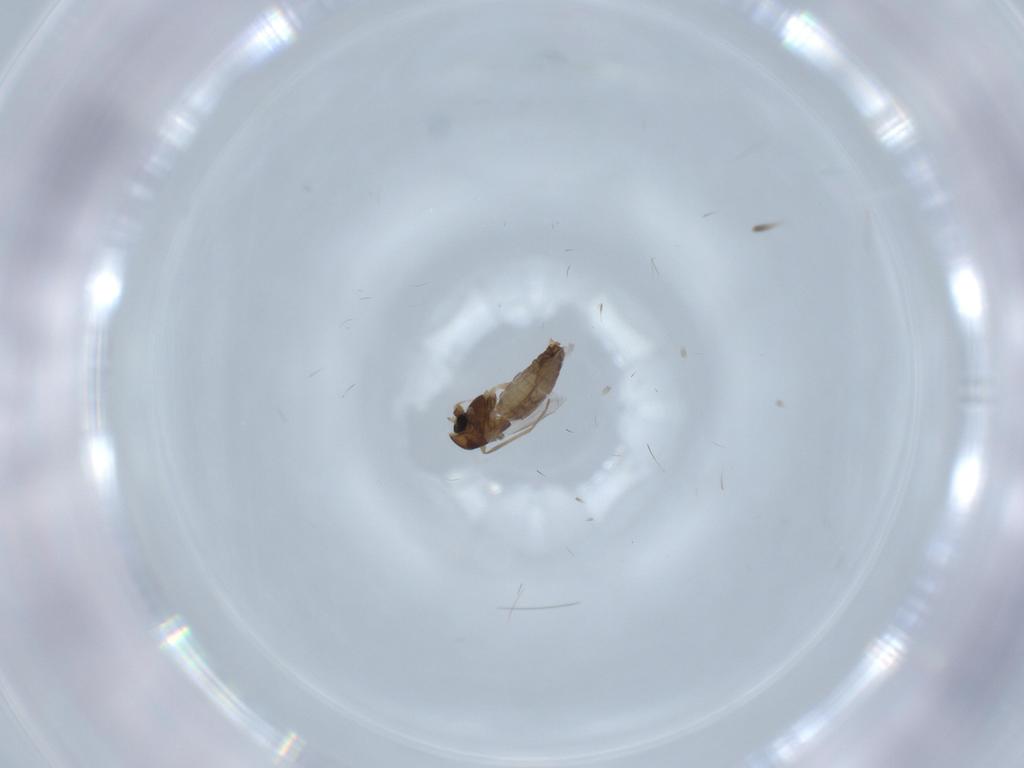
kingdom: Animalia
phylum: Arthropoda
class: Insecta
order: Diptera
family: Chironomidae
